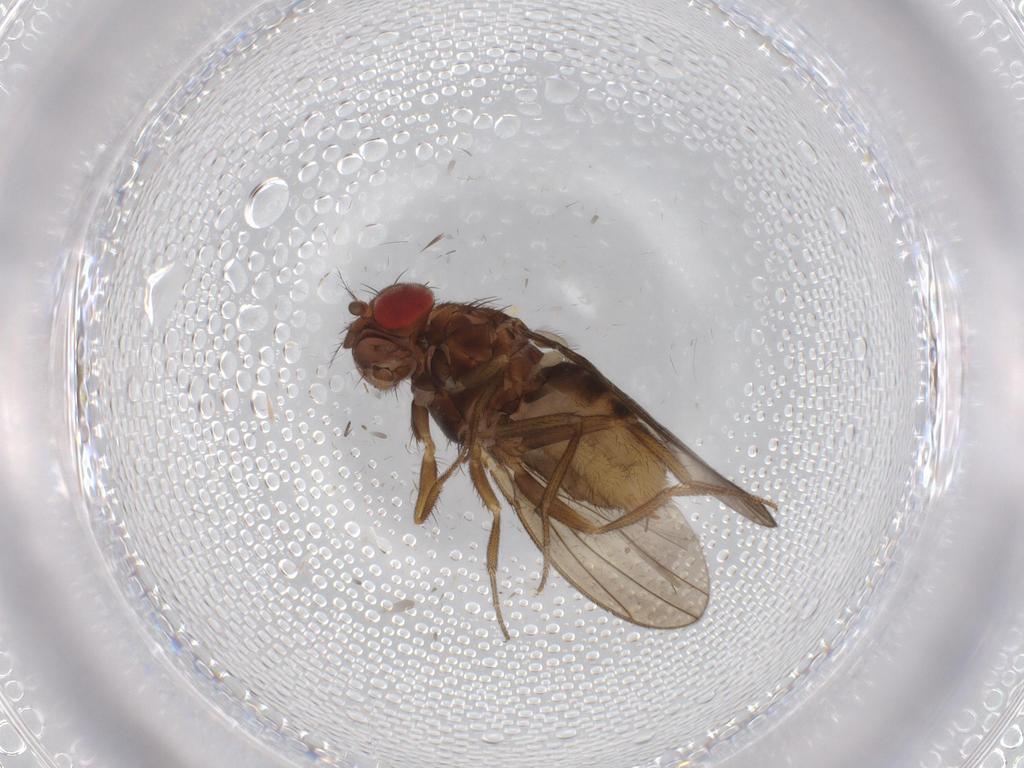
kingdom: Animalia
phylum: Arthropoda
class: Insecta
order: Diptera
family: Drosophilidae
